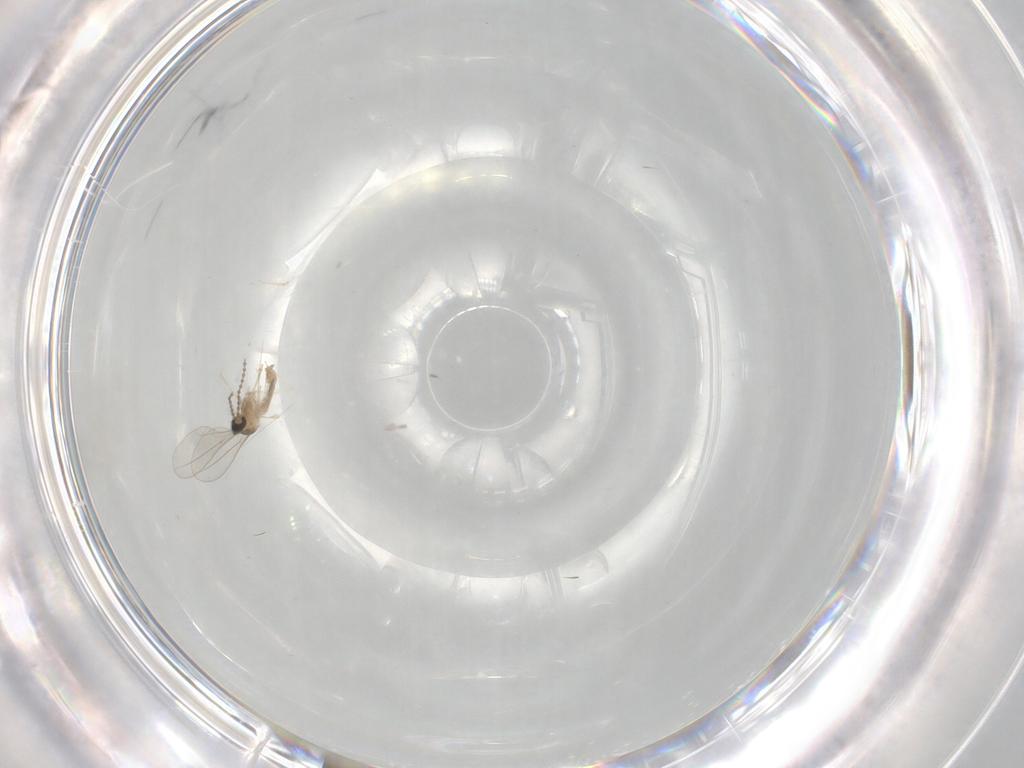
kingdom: Animalia
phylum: Arthropoda
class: Insecta
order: Diptera
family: Cecidomyiidae
